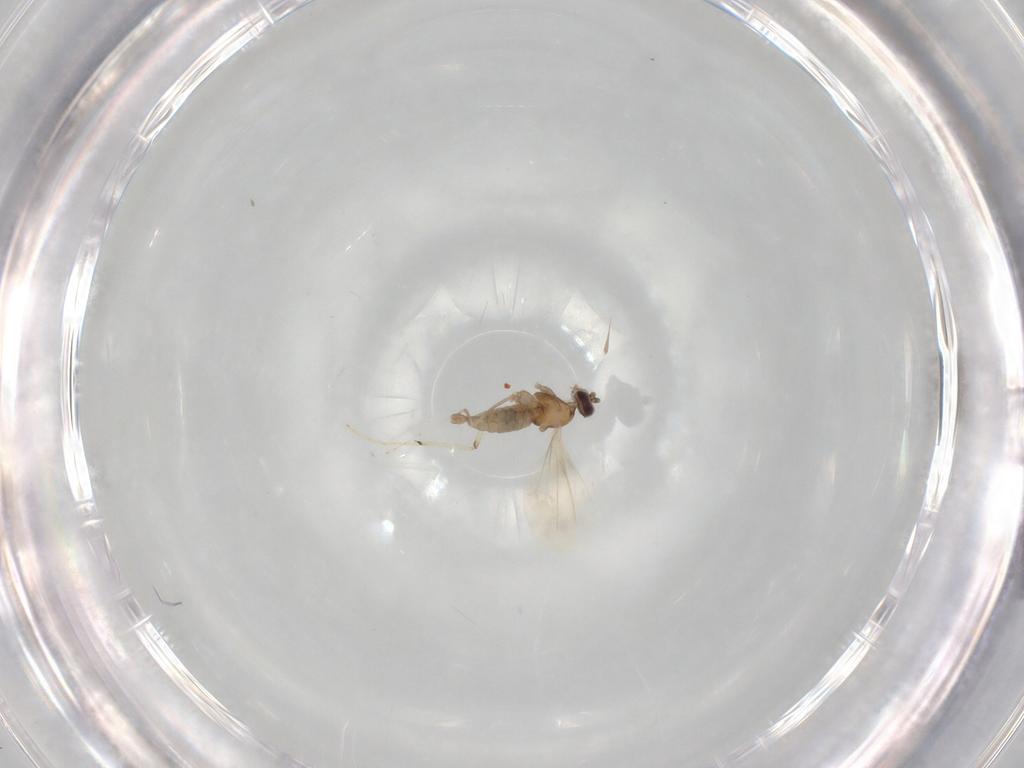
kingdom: Animalia
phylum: Arthropoda
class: Insecta
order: Diptera
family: Cecidomyiidae
